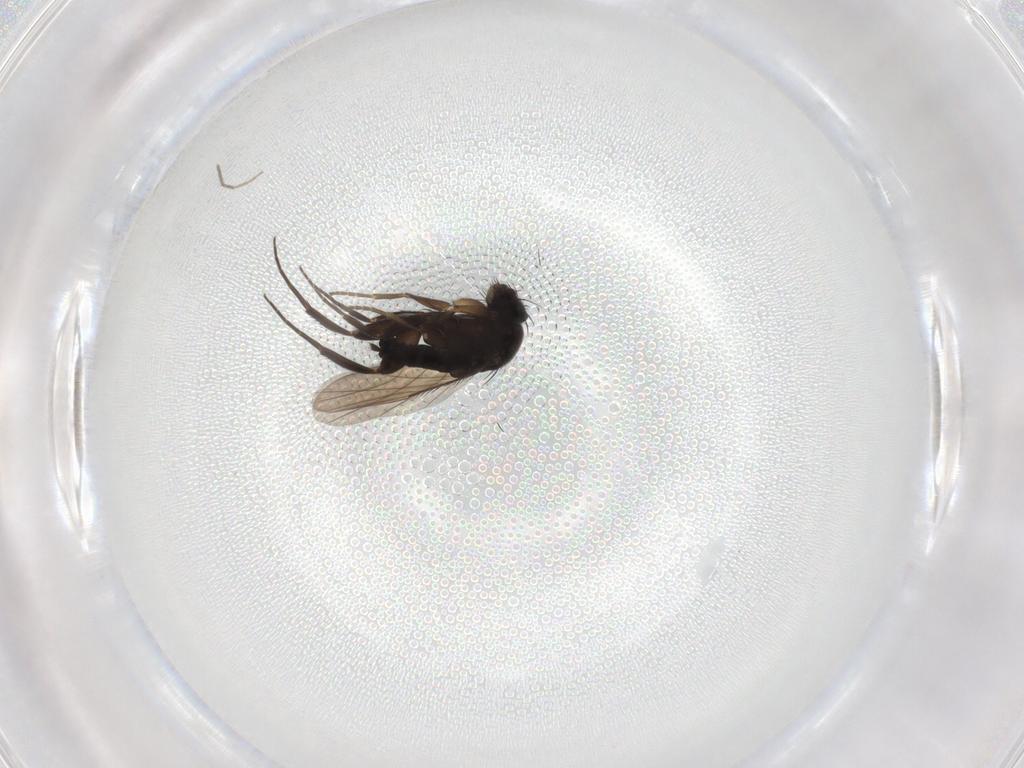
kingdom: Animalia
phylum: Arthropoda
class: Insecta
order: Diptera
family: Phoridae
